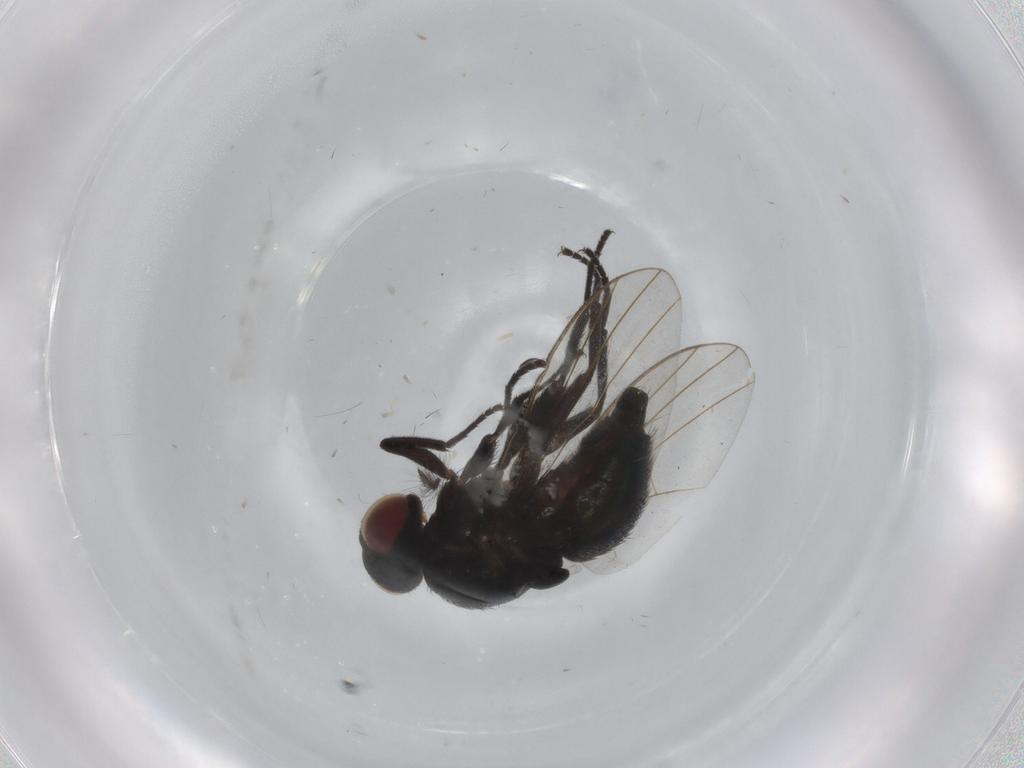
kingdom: Animalia
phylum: Arthropoda
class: Insecta
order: Diptera
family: Agromyzidae
